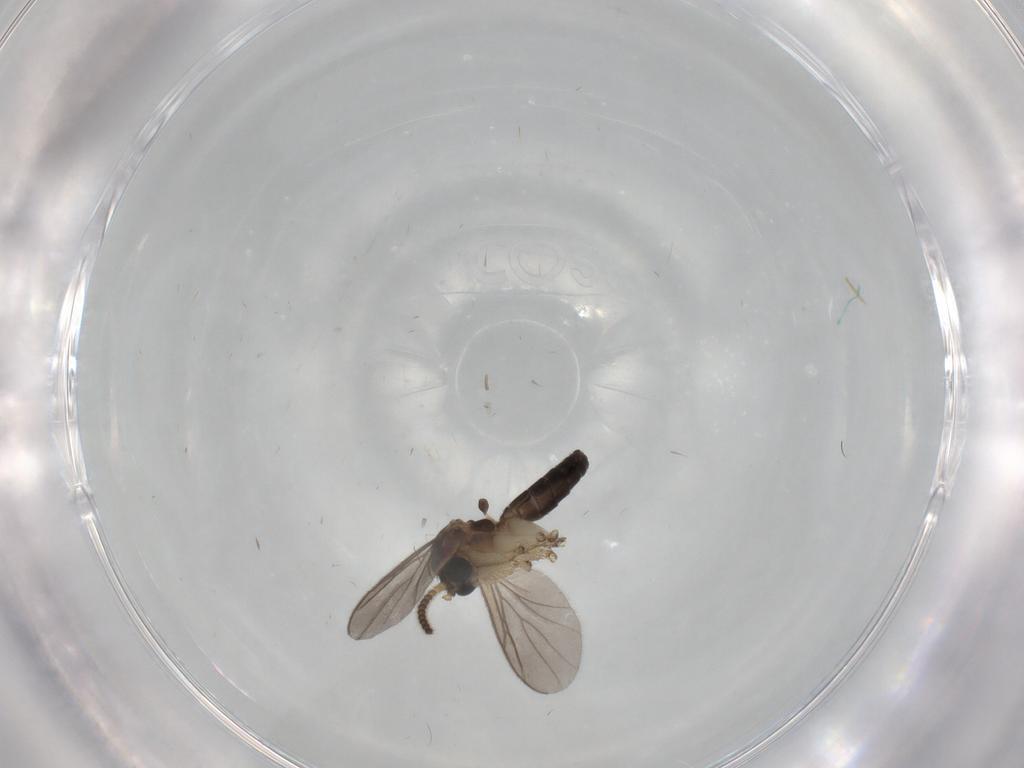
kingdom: Animalia
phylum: Arthropoda
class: Insecta
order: Diptera
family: Mycetophilidae
